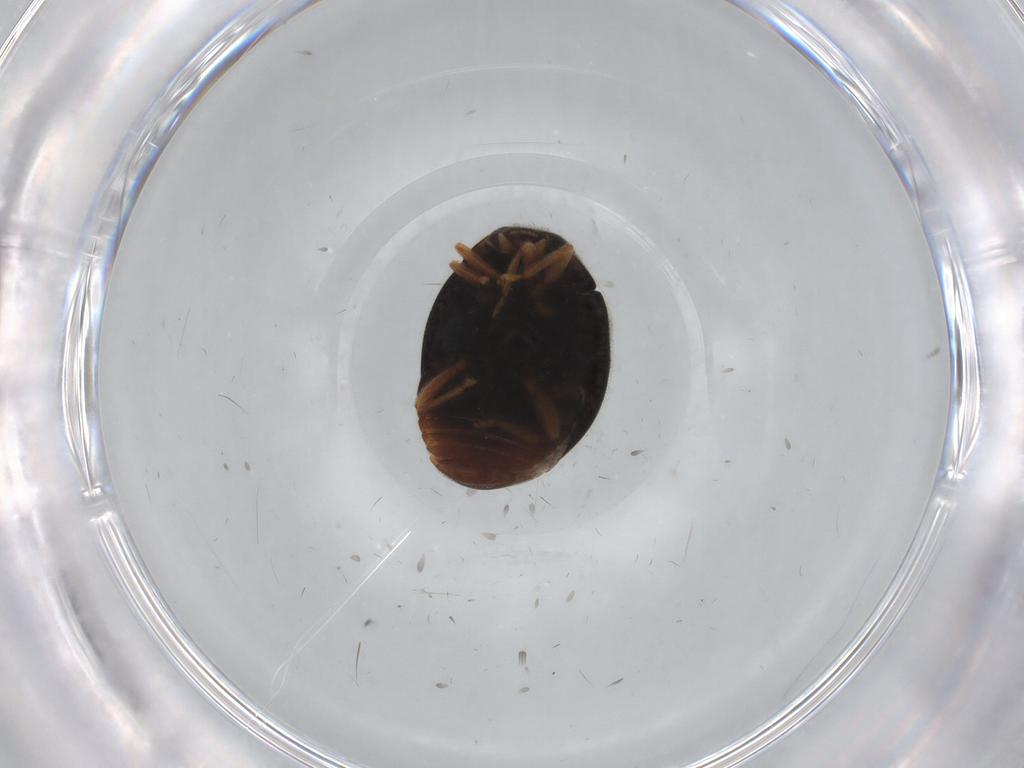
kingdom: Animalia
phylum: Arthropoda
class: Insecta
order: Coleoptera
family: Coccinellidae
